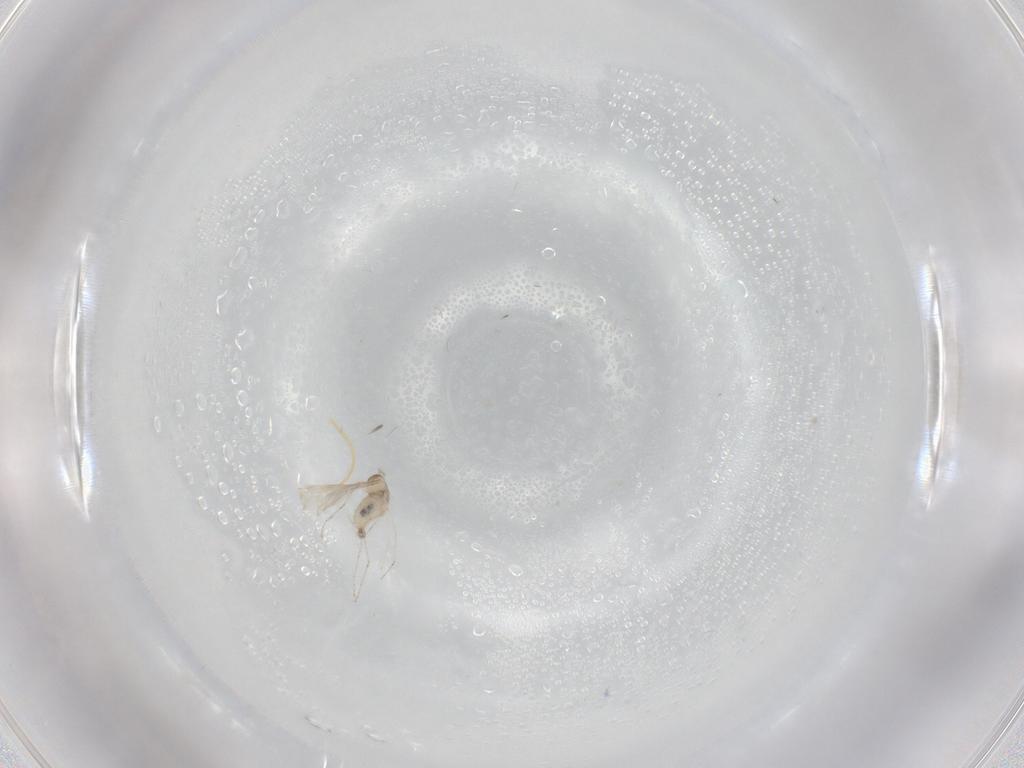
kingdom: Animalia
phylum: Arthropoda
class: Insecta
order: Diptera
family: Cecidomyiidae
